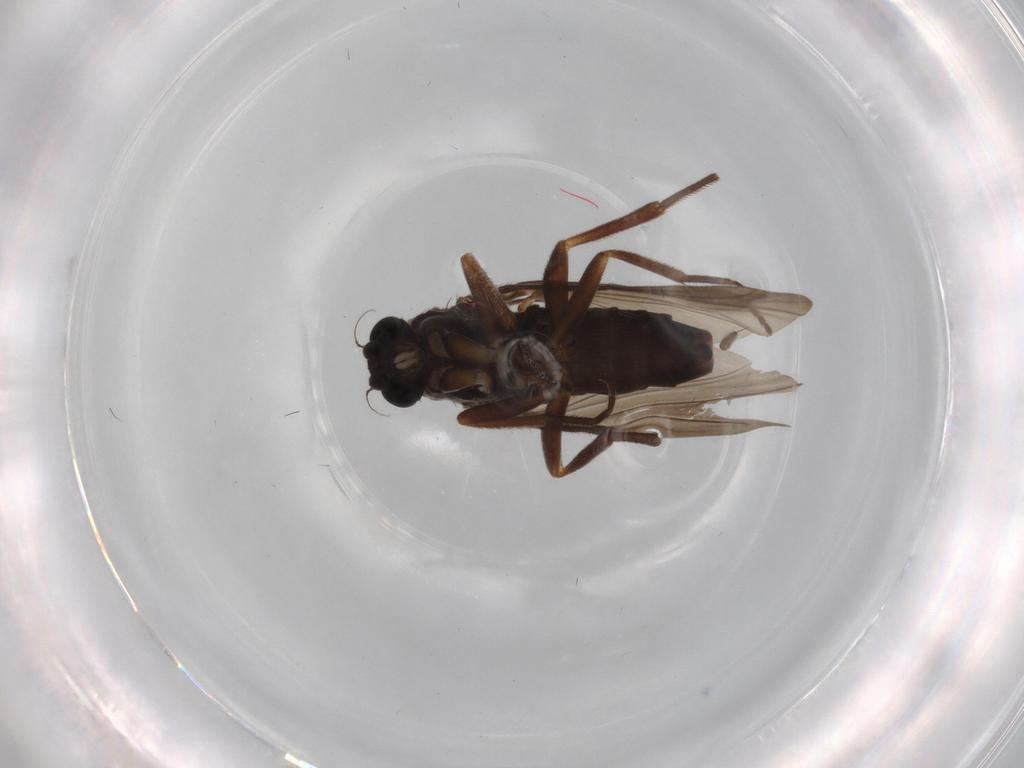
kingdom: Animalia
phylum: Arthropoda
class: Insecta
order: Diptera
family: Phoridae
